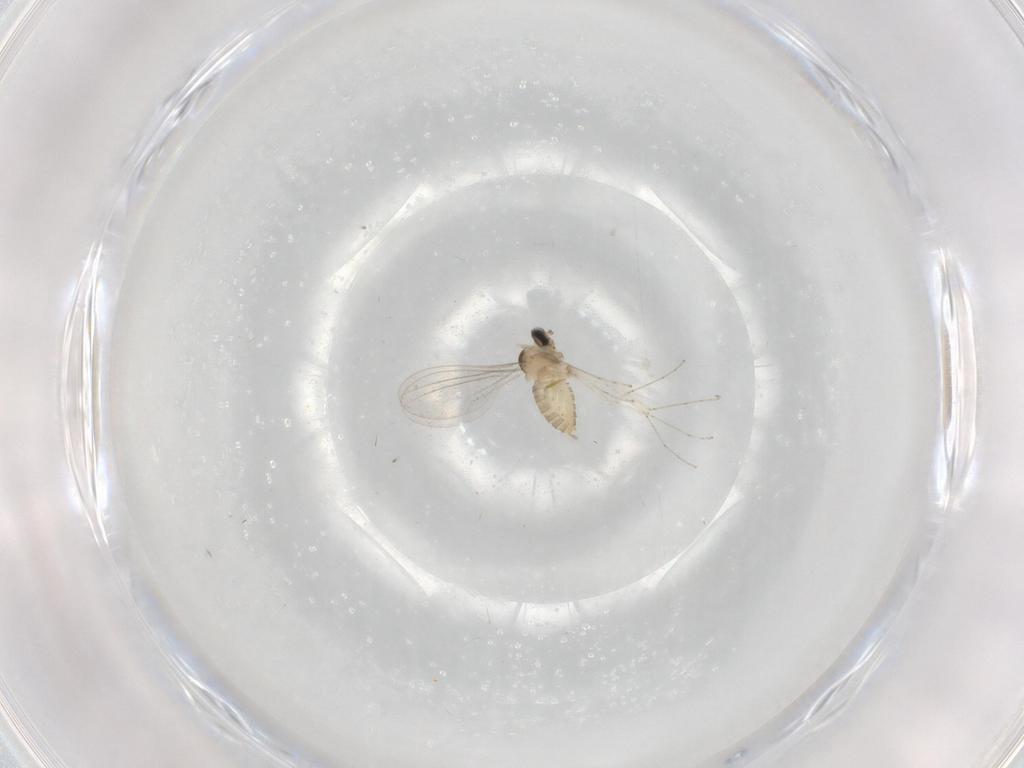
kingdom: Animalia
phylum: Arthropoda
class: Insecta
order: Diptera
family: Cecidomyiidae
